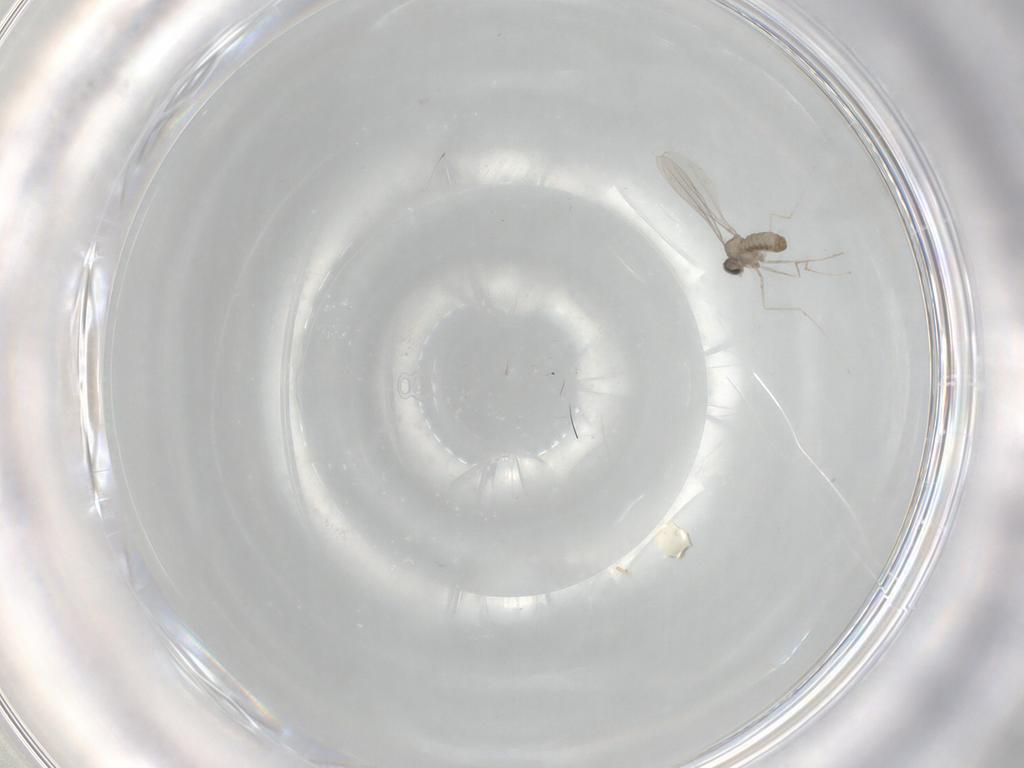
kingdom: Animalia
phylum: Arthropoda
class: Insecta
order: Diptera
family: Cecidomyiidae
